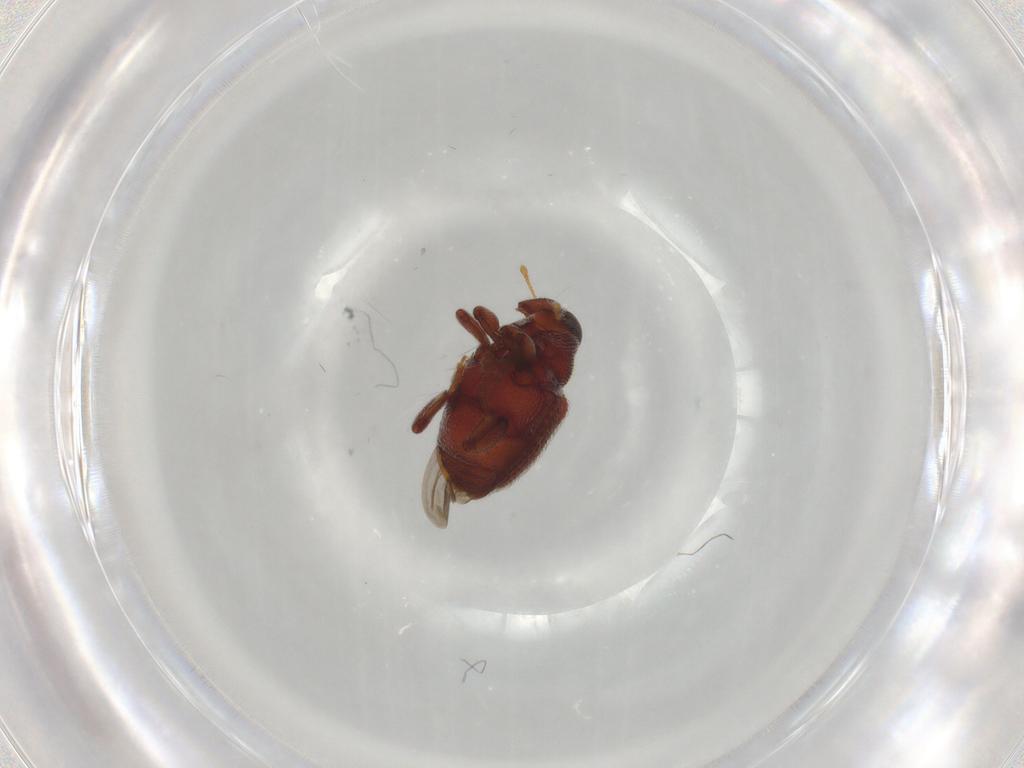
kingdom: Animalia
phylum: Arthropoda
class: Insecta
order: Coleoptera
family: Curculionidae
